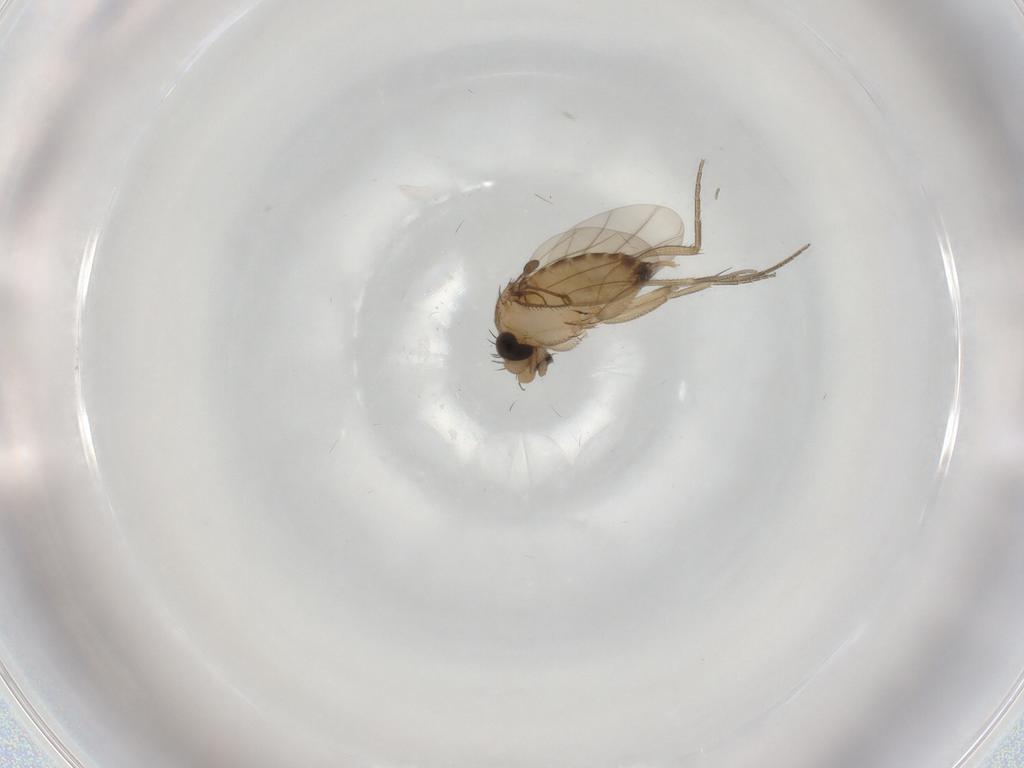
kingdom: Animalia
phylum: Arthropoda
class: Insecta
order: Diptera
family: Phoridae
